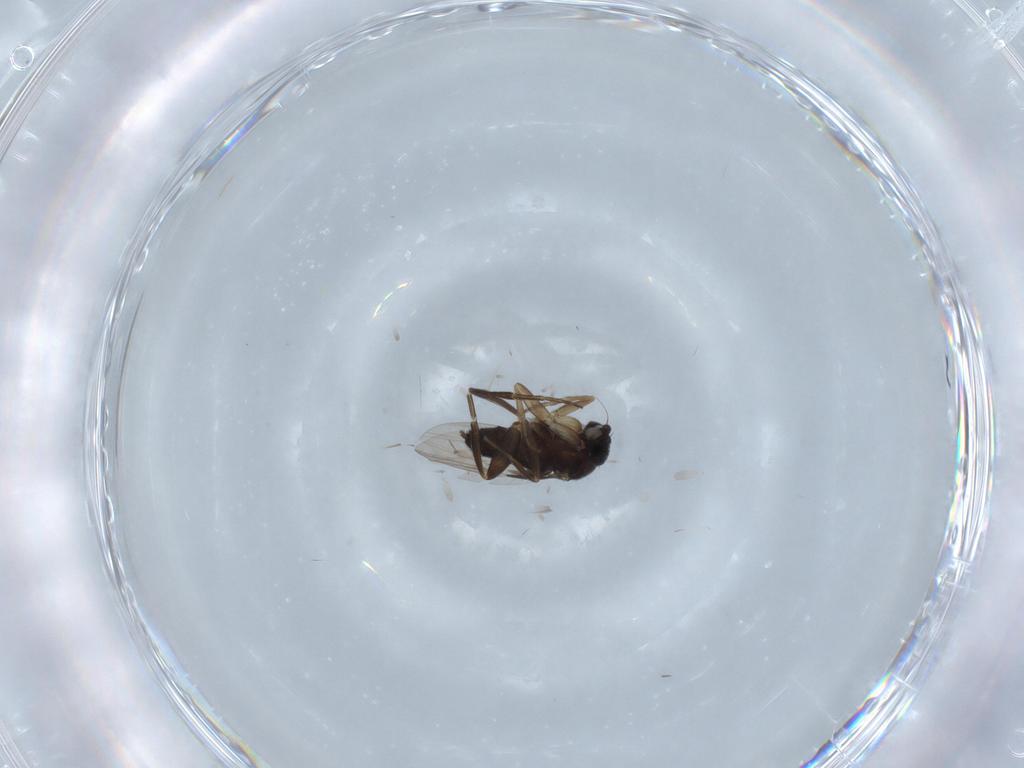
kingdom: Animalia
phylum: Arthropoda
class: Insecta
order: Diptera
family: Phoridae
